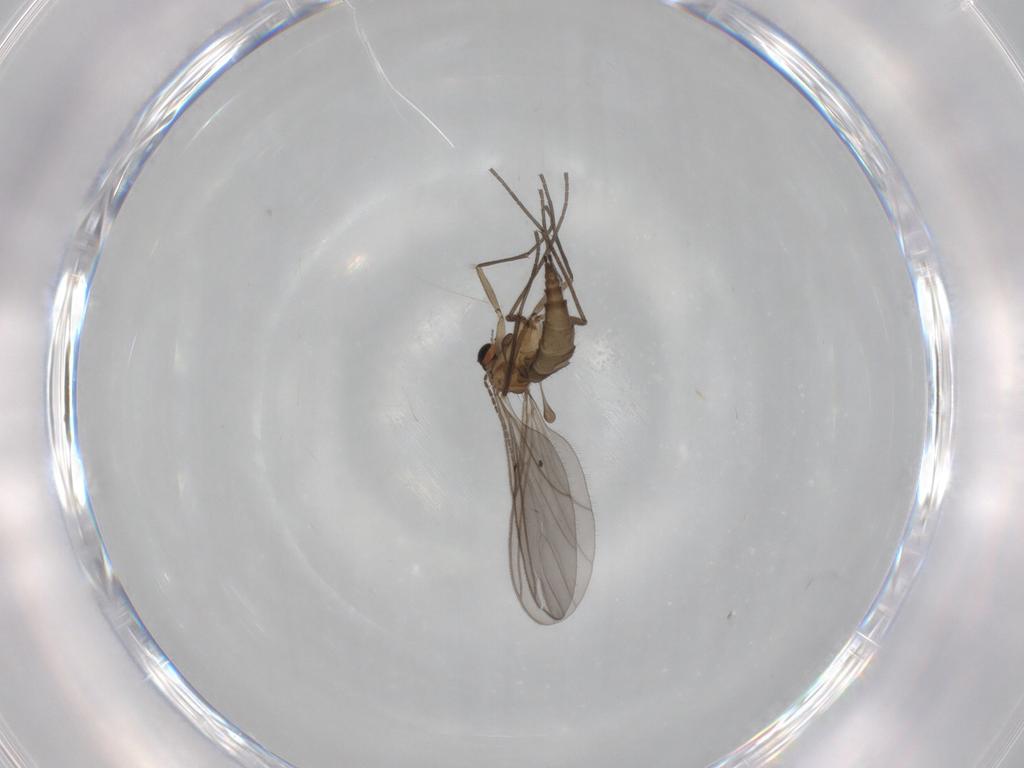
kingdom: Animalia
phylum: Arthropoda
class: Insecta
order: Diptera
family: Sciaridae
